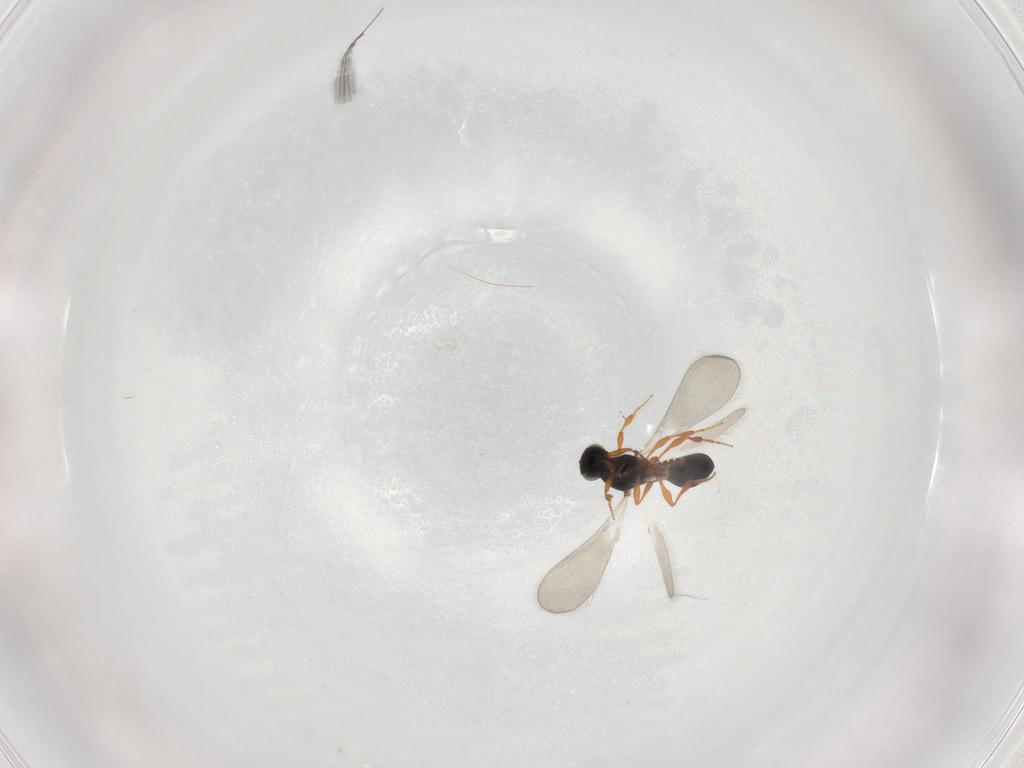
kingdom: Animalia
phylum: Arthropoda
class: Insecta
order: Hymenoptera
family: Platygastridae
